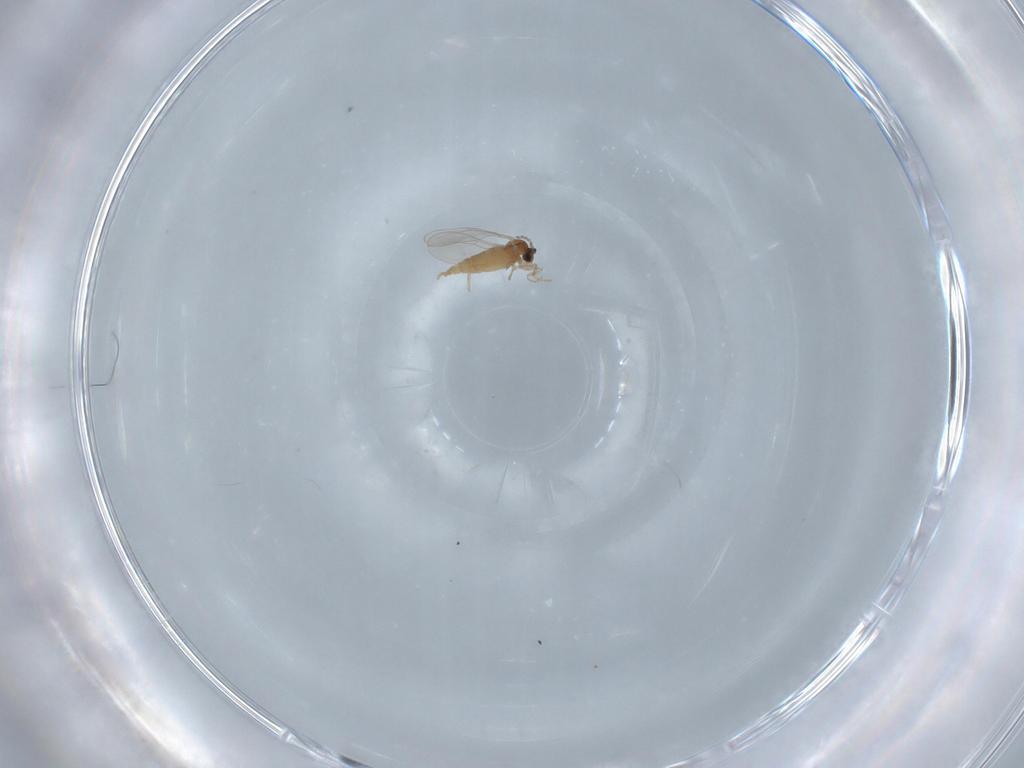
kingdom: Animalia
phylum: Arthropoda
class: Insecta
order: Diptera
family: Cecidomyiidae
